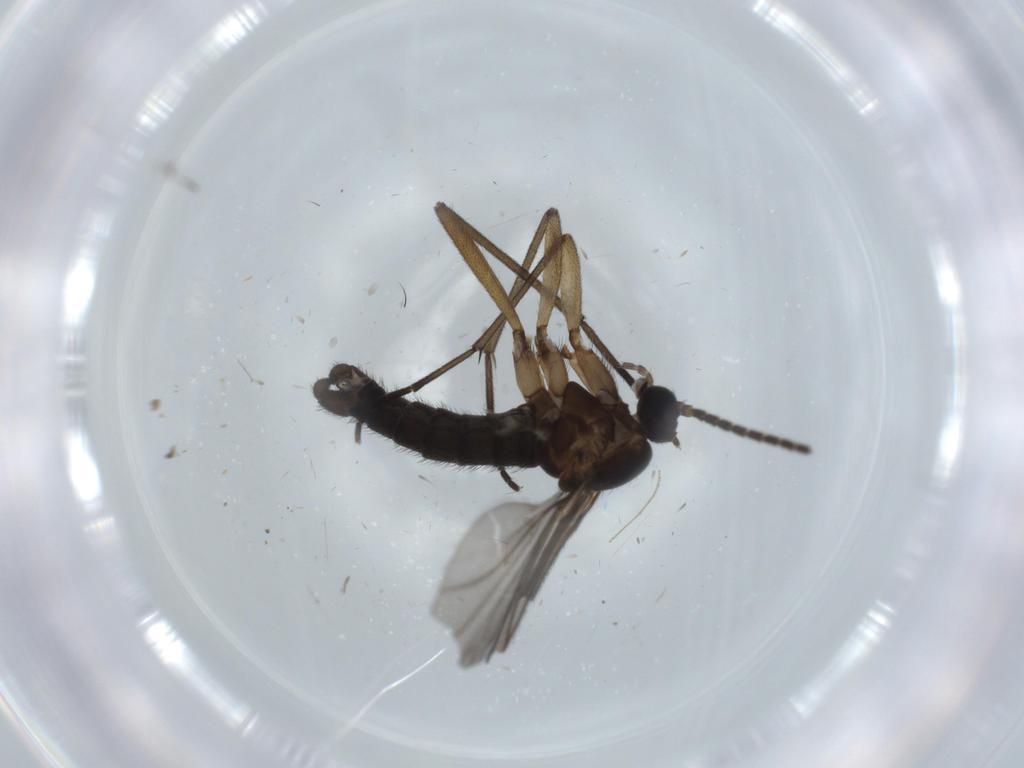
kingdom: Animalia
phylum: Arthropoda
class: Insecta
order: Diptera
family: Sciaridae
